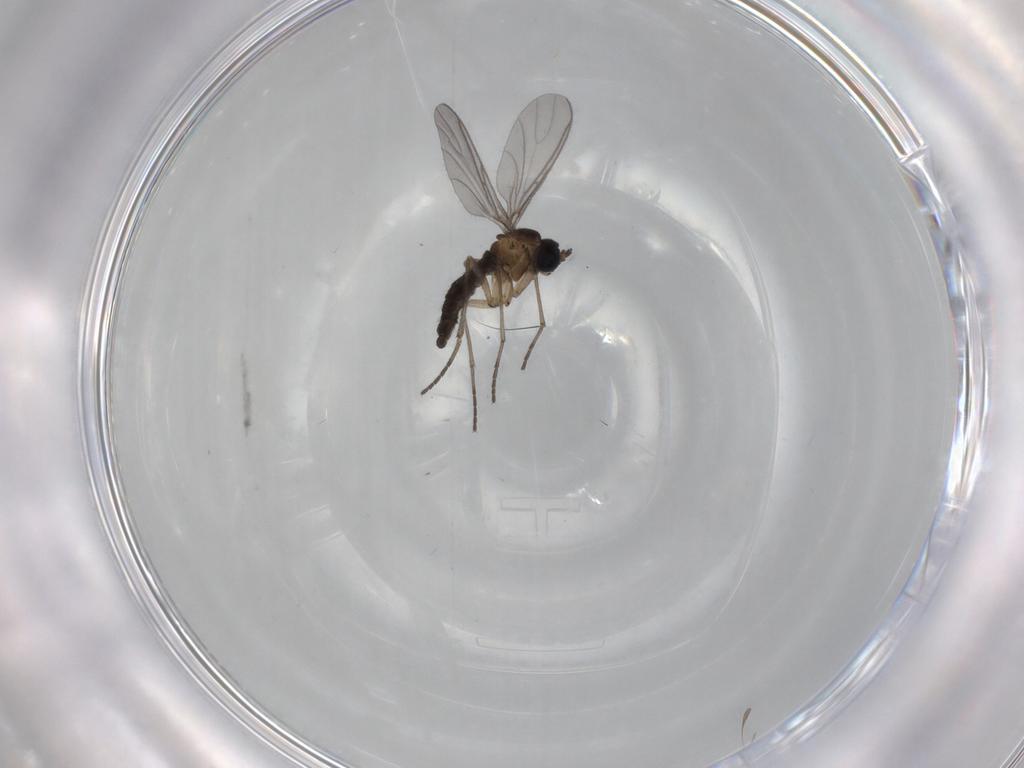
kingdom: Animalia
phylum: Arthropoda
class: Insecta
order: Diptera
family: Sciaridae
